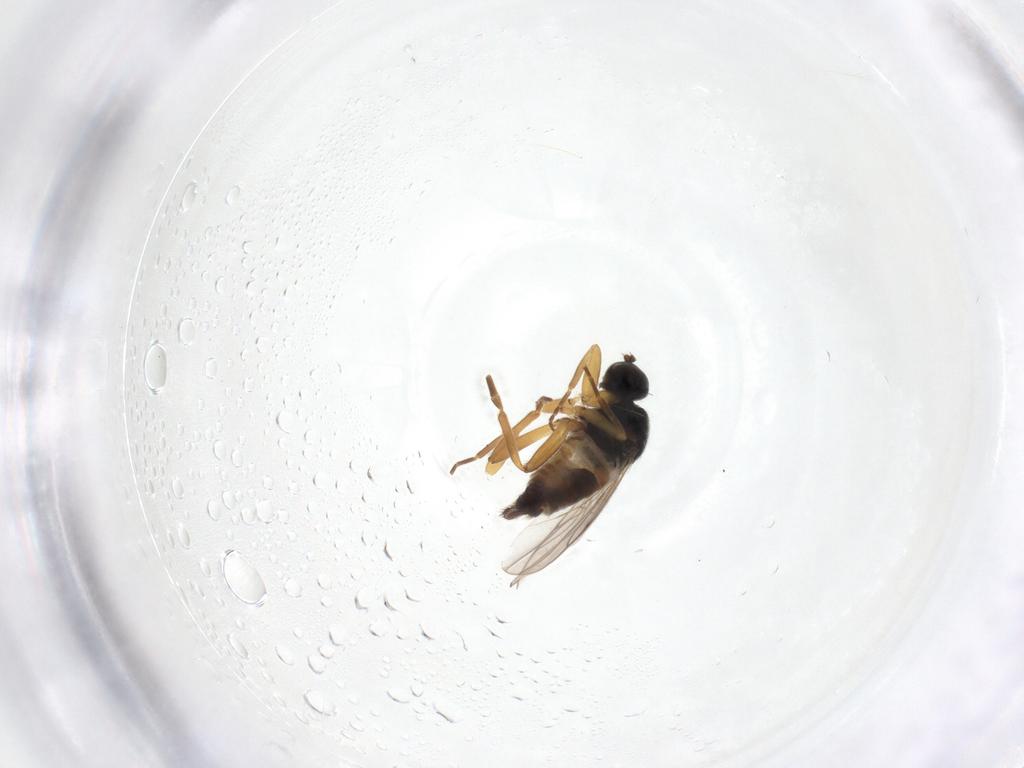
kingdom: Animalia
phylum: Arthropoda
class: Insecta
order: Diptera
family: Hybotidae
